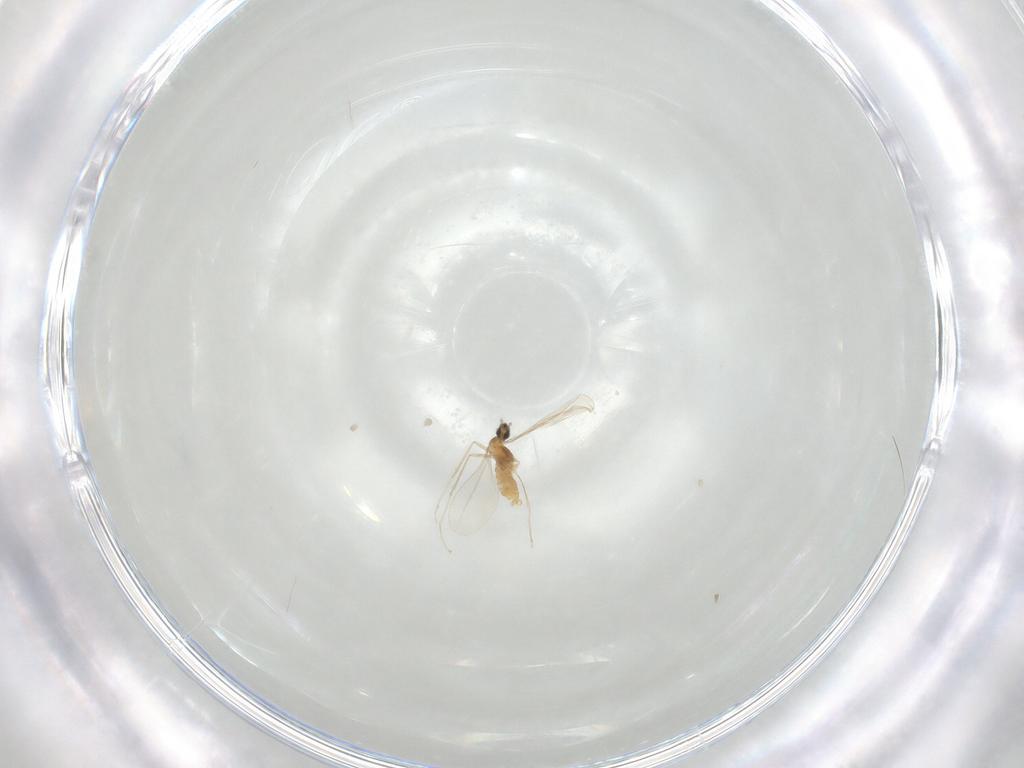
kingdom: Animalia
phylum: Arthropoda
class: Insecta
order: Diptera
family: Cecidomyiidae
